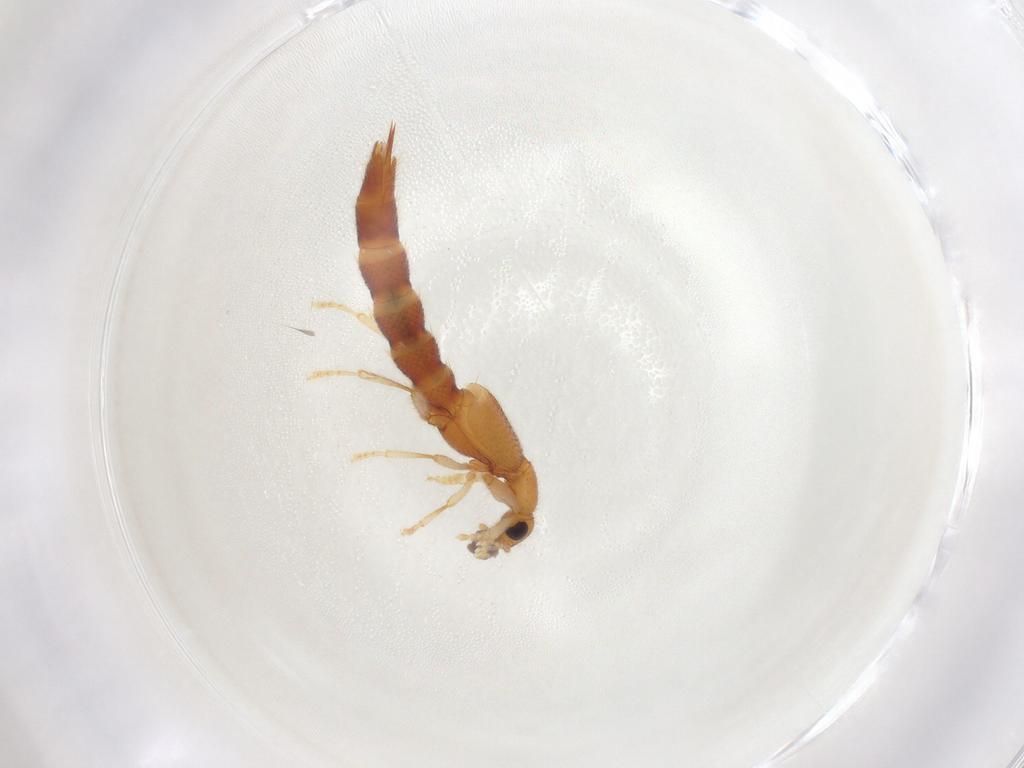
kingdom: Animalia
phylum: Arthropoda
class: Insecta
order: Coleoptera
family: Staphylinidae
